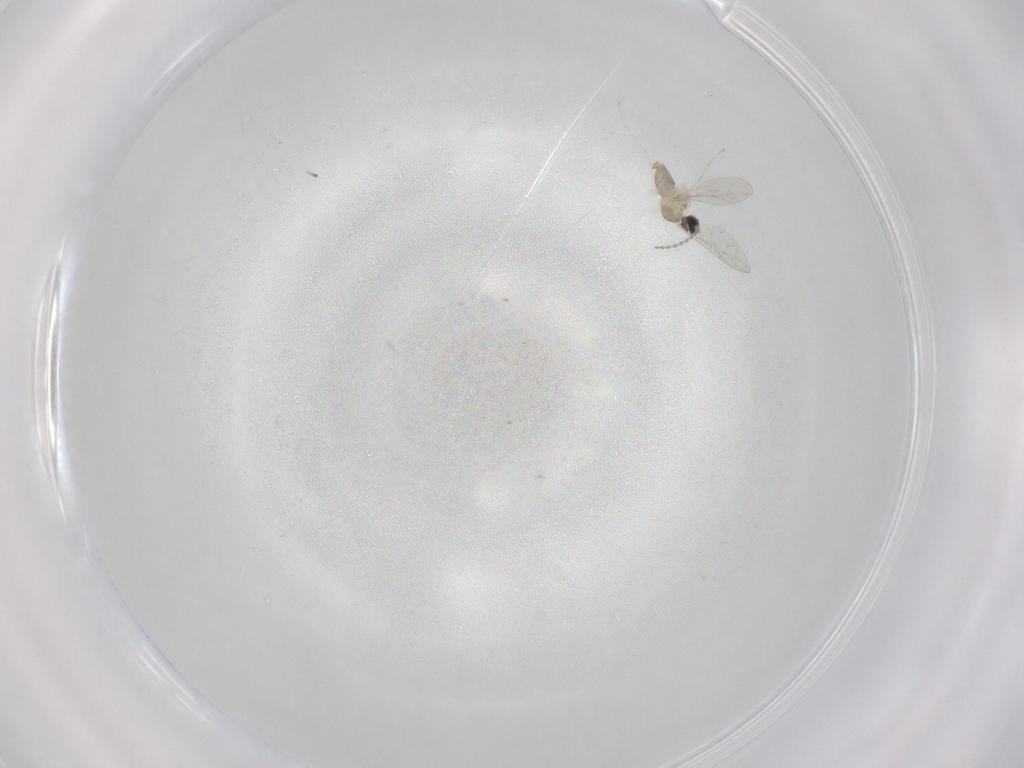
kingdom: Animalia
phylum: Arthropoda
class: Insecta
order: Diptera
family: Cecidomyiidae
